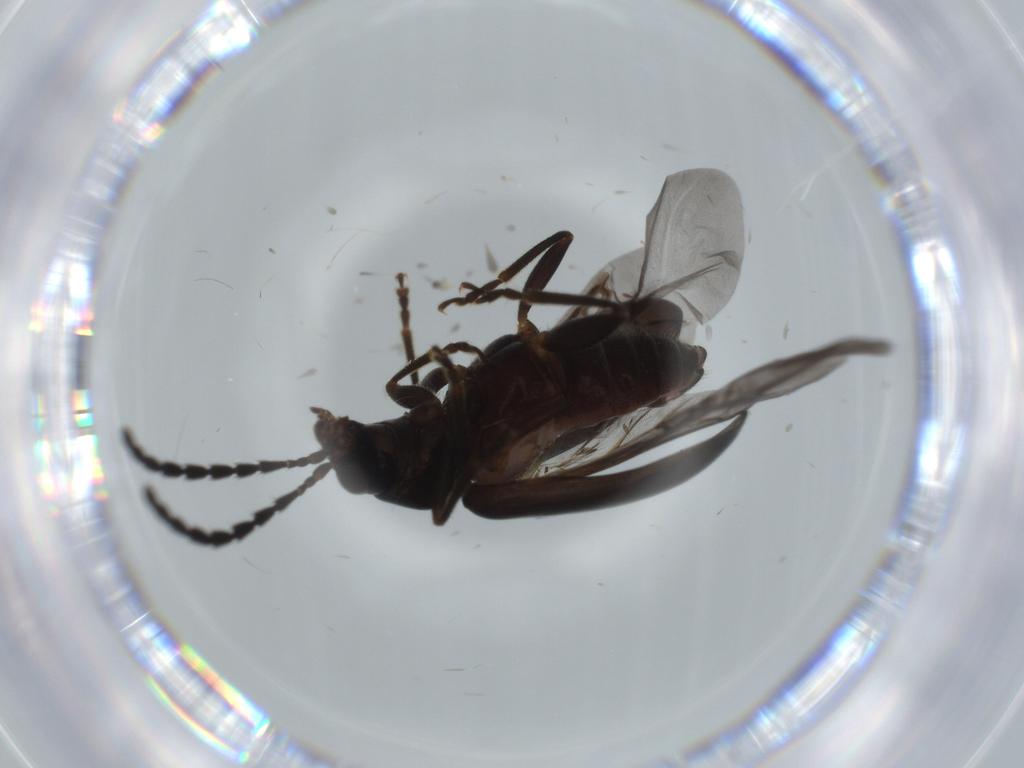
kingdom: Animalia
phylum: Arthropoda
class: Insecta
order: Coleoptera
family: Chrysomelidae
